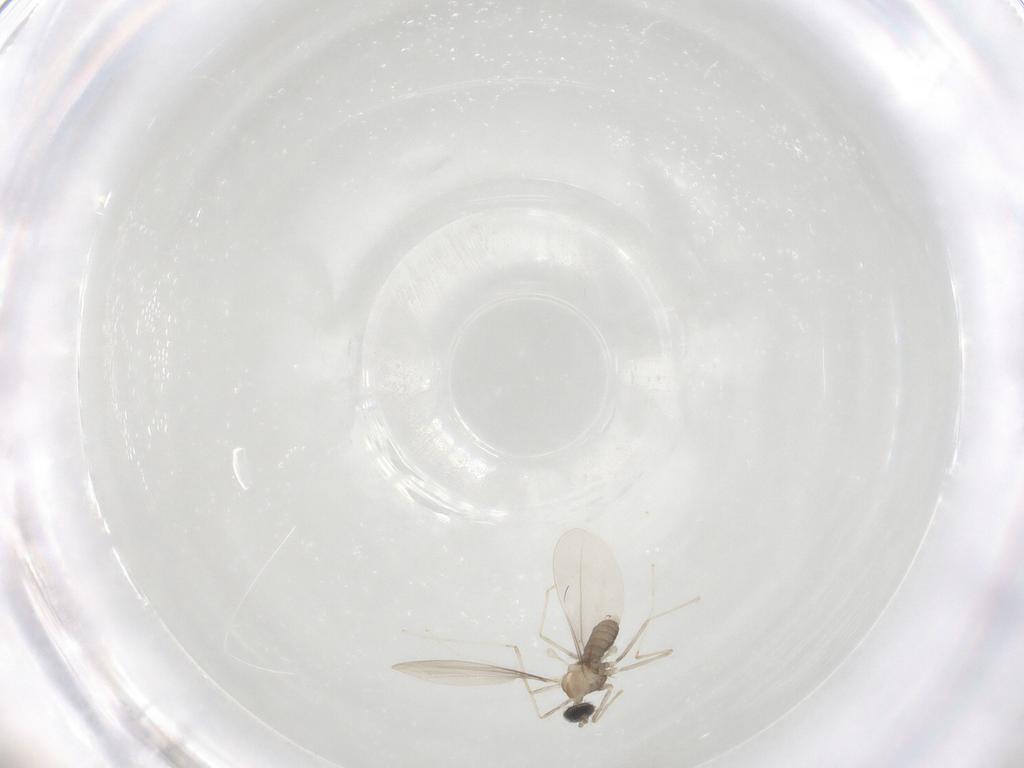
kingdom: Animalia
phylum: Arthropoda
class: Insecta
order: Diptera
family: Cecidomyiidae
